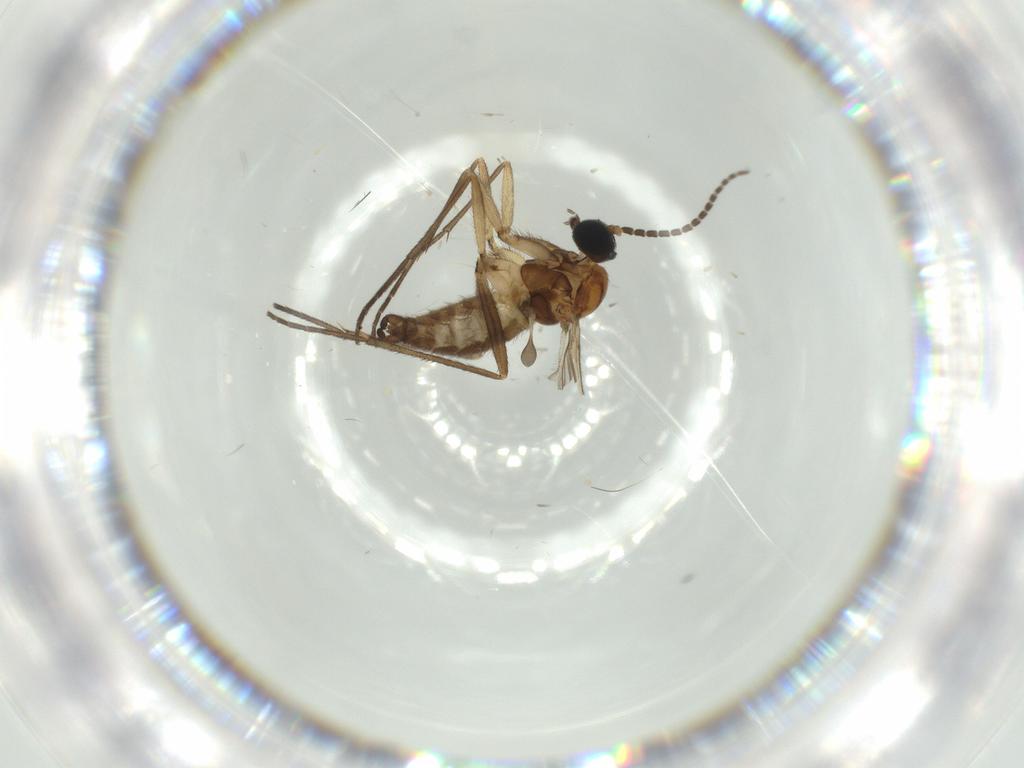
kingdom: Animalia
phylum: Arthropoda
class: Insecta
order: Diptera
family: Sciaridae
